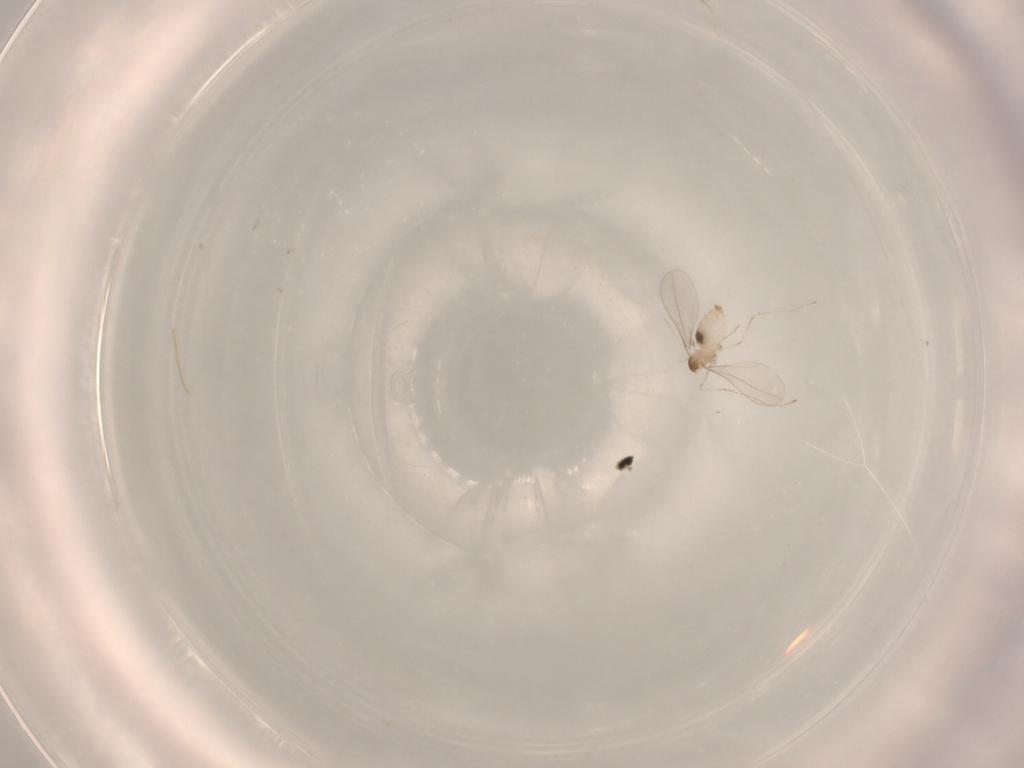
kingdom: Animalia
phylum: Arthropoda
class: Insecta
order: Diptera
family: Cecidomyiidae
